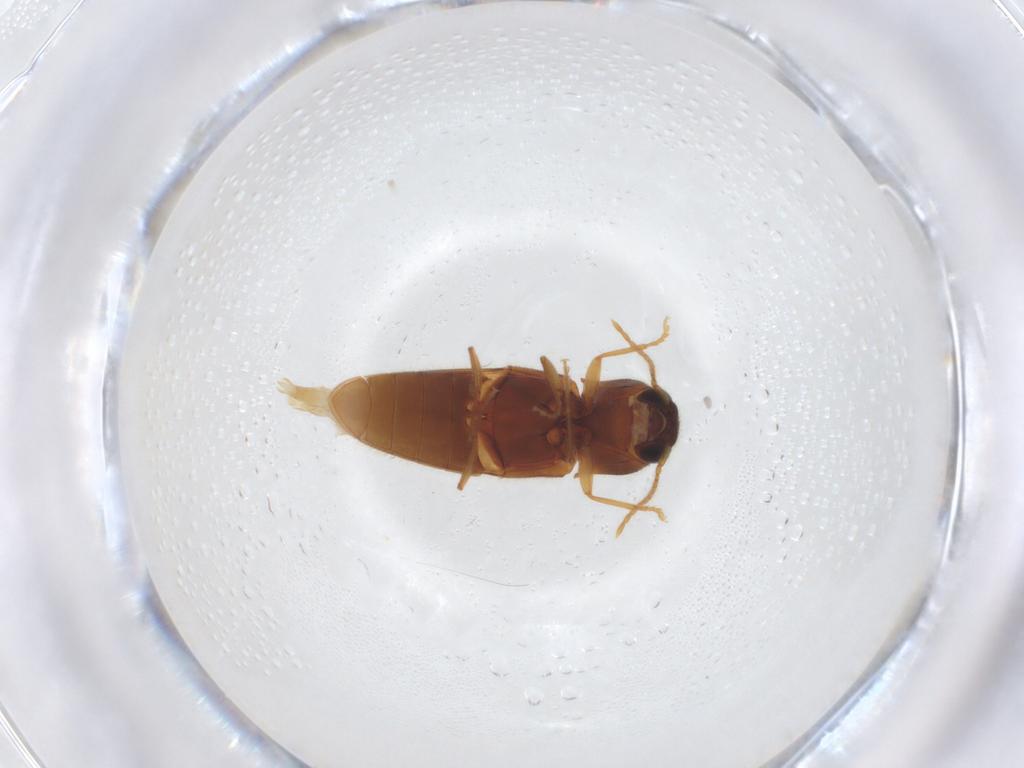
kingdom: Animalia
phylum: Arthropoda
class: Insecta
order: Coleoptera
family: Elateridae
